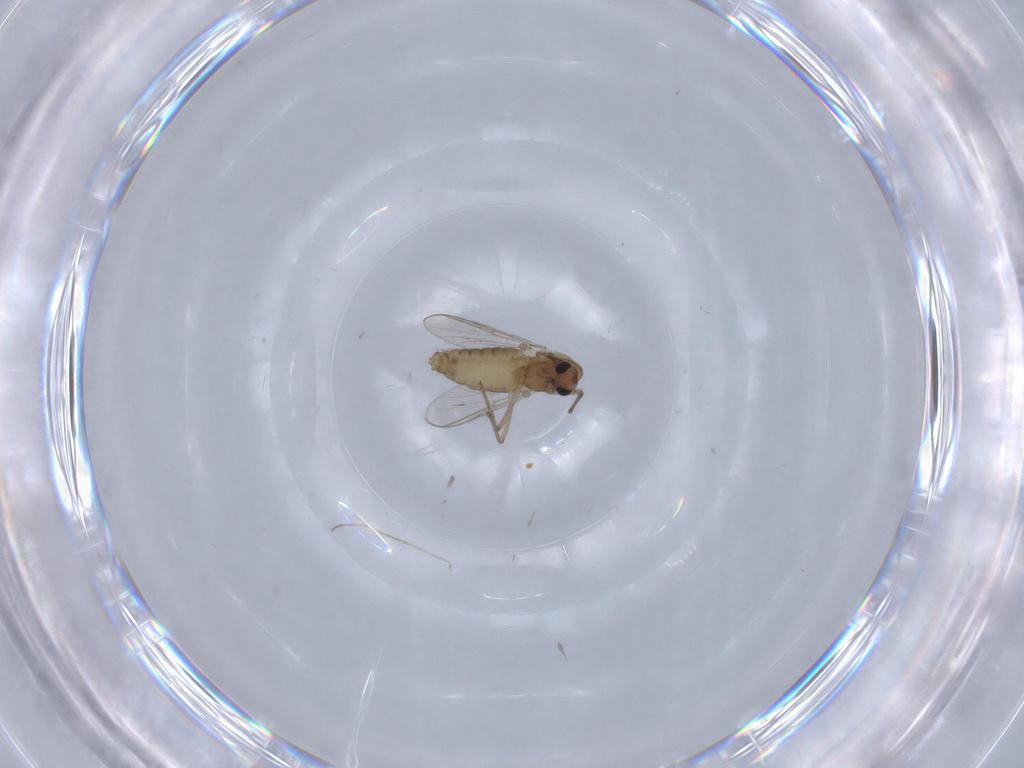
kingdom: Animalia
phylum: Arthropoda
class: Insecta
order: Diptera
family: Chironomidae
